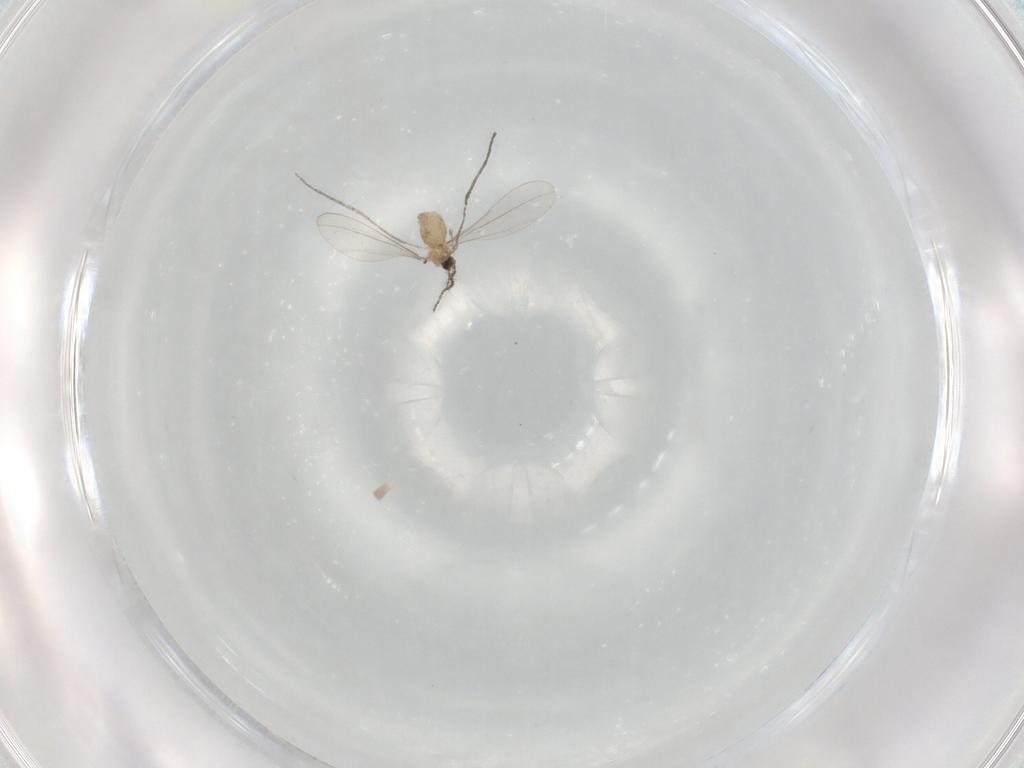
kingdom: Animalia
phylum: Arthropoda
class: Insecta
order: Diptera
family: Cecidomyiidae
